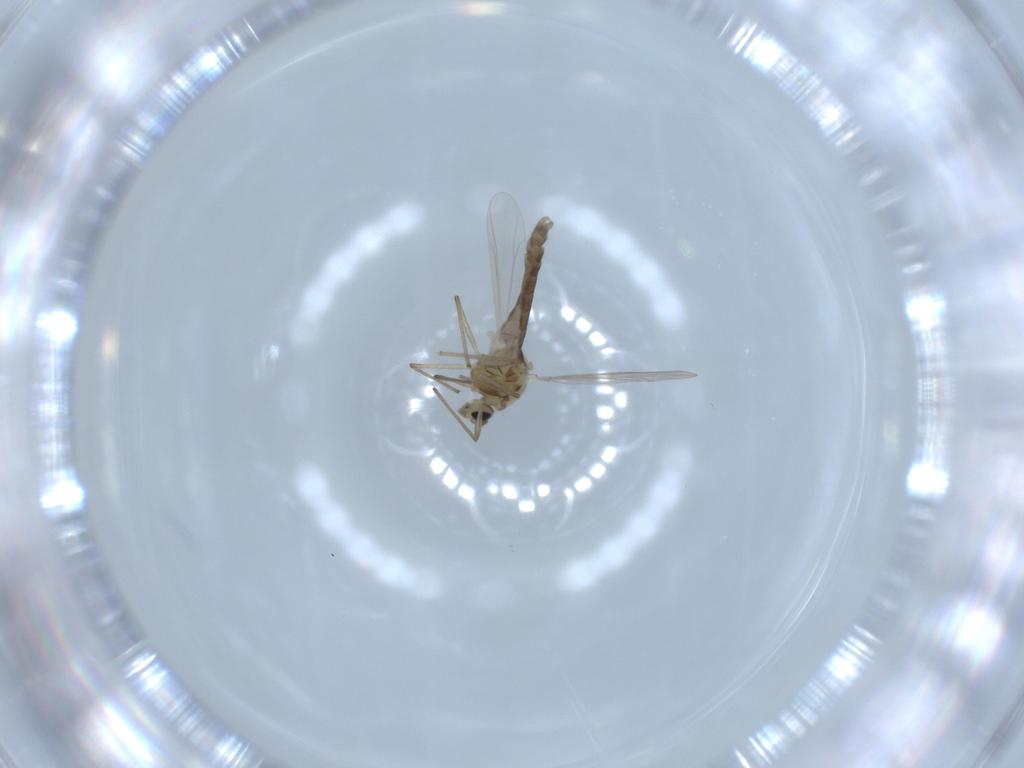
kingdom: Animalia
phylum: Arthropoda
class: Insecta
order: Diptera
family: Chironomidae
